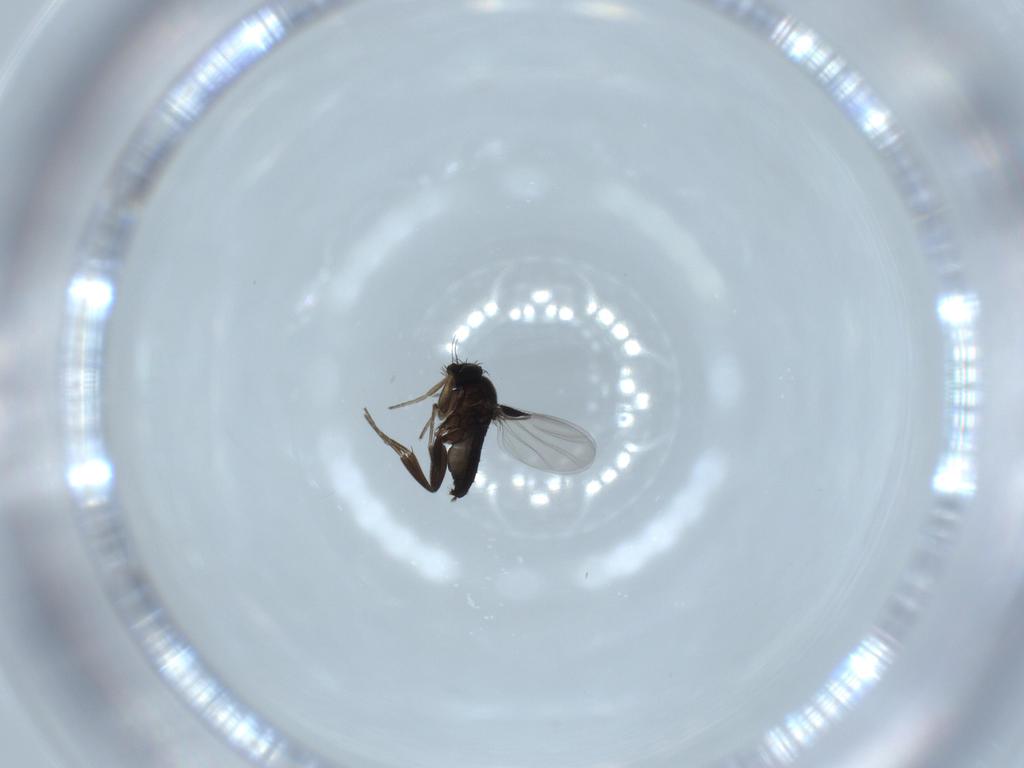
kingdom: Animalia
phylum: Arthropoda
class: Insecta
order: Diptera
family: Phoridae
